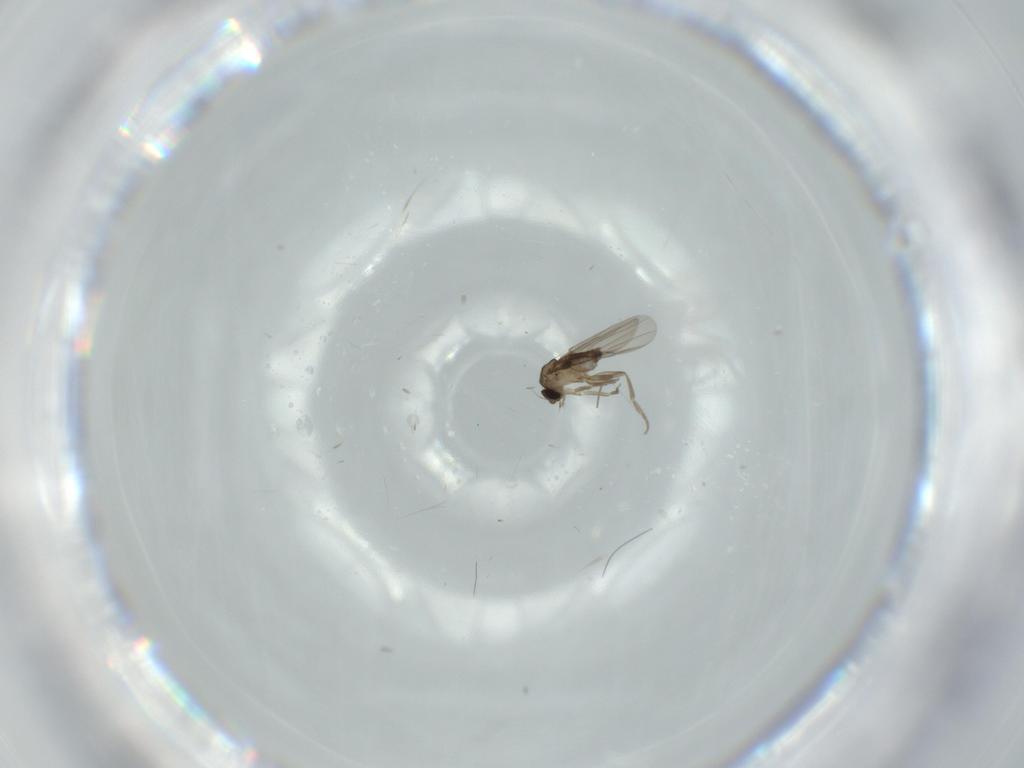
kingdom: Animalia
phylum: Arthropoda
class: Insecta
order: Diptera
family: Phoridae
